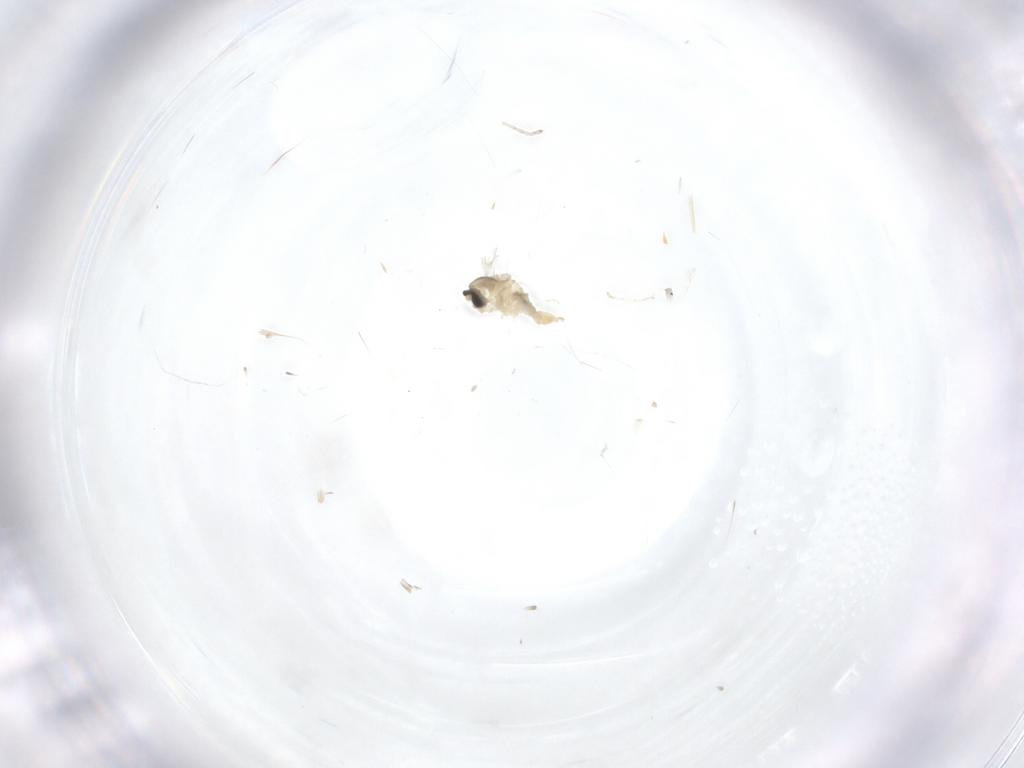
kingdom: Animalia
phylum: Arthropoda
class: Insecta
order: Diptera
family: Cecidomyiidae
